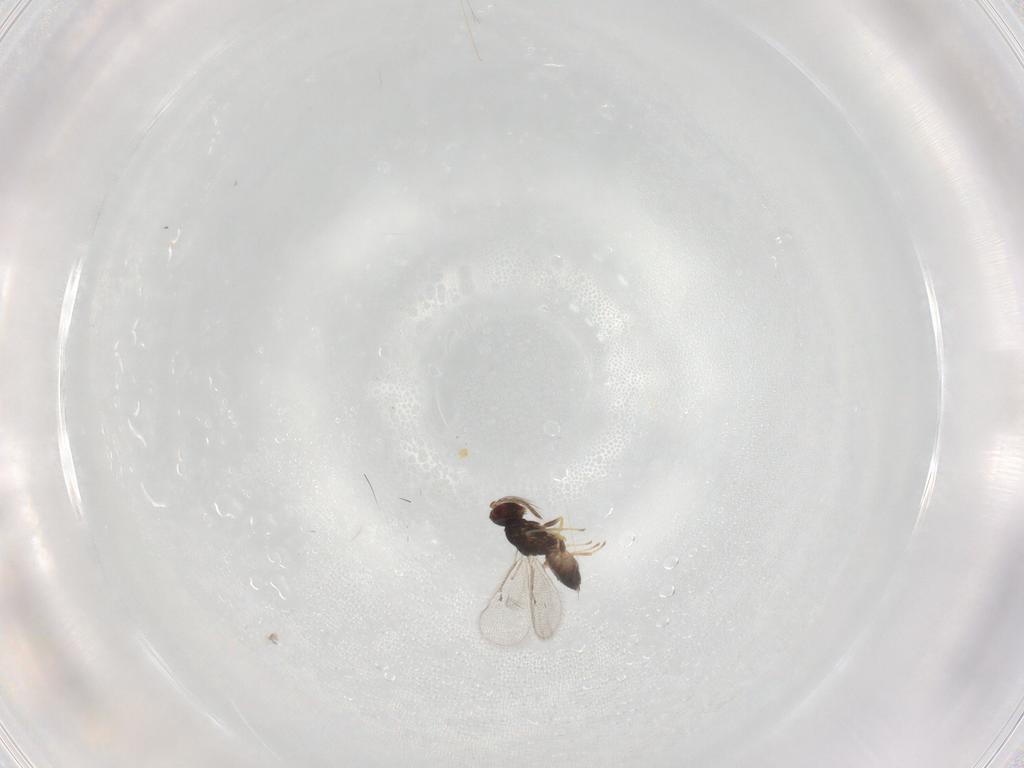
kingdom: Animalia
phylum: Arthropoda
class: Insecta
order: Hymenoptera
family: Eulophidae
